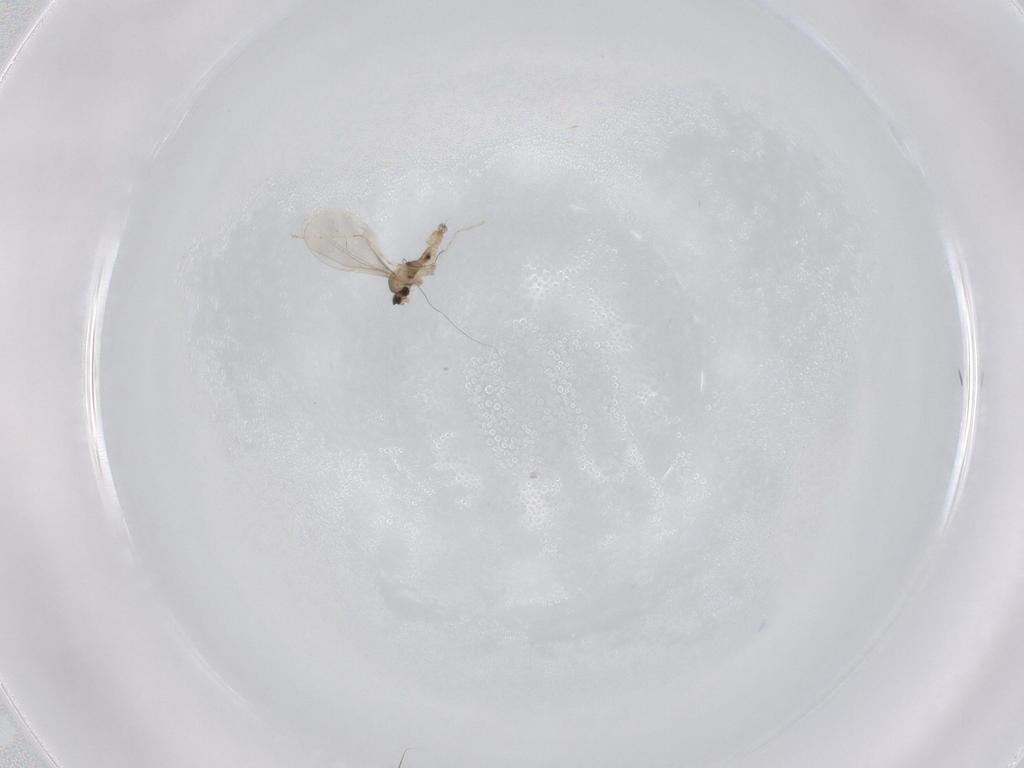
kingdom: Animalia
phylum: Arthropoda
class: Insecta
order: Diptera
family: Cecidomyiidae
